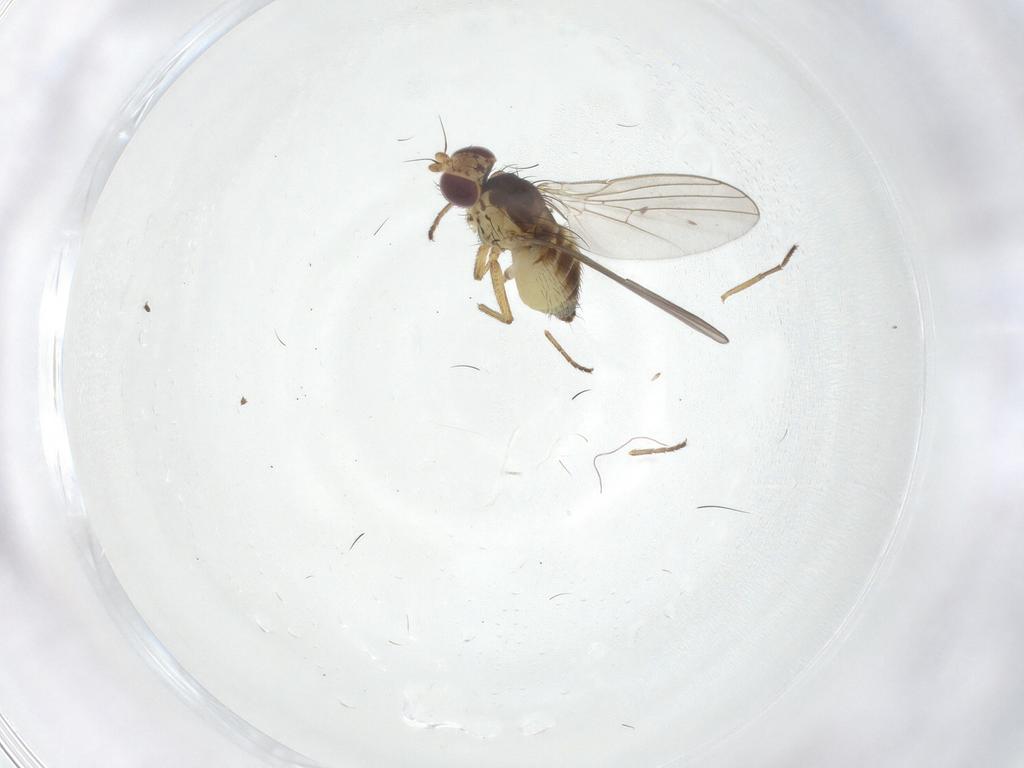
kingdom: Animalia
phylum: Arthropoda
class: Insecta
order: Diptera
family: Agromyzidae
